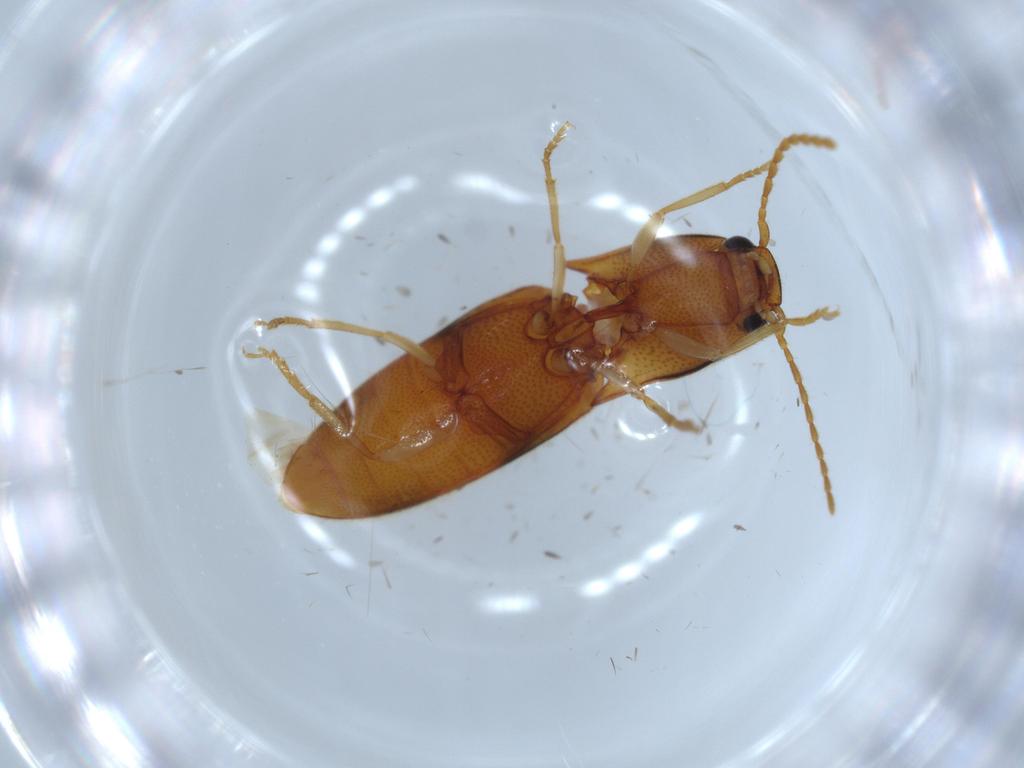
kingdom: Animalia
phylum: Arthropoda
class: Insecta
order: Coleoptera
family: Elateridae
